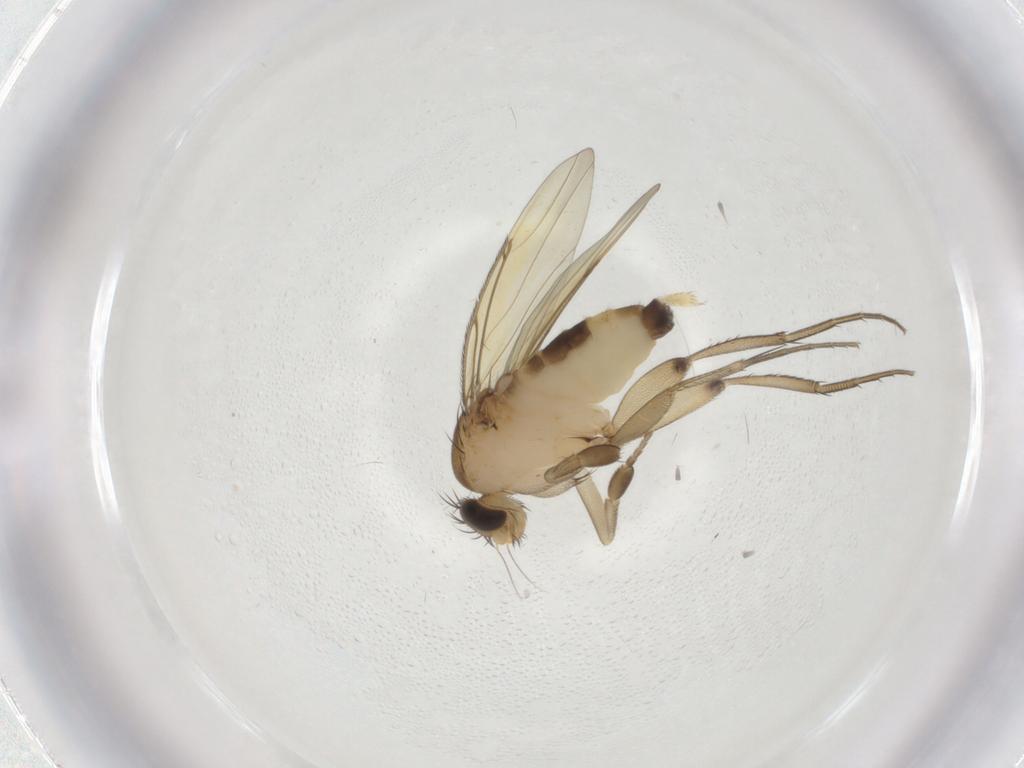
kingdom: Animalia
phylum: Arthropoda
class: Insecta
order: Diptera
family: Phoridae
